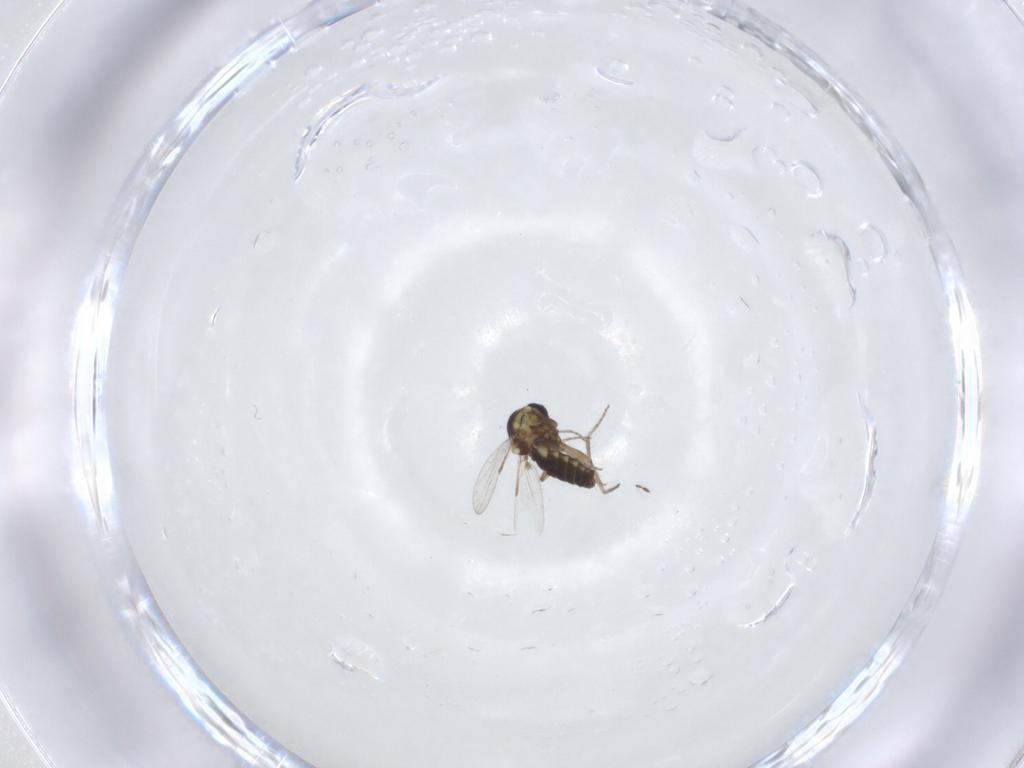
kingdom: Animalia
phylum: Arthropoda
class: Insecta
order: Diptera
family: Ceratopogonidae
